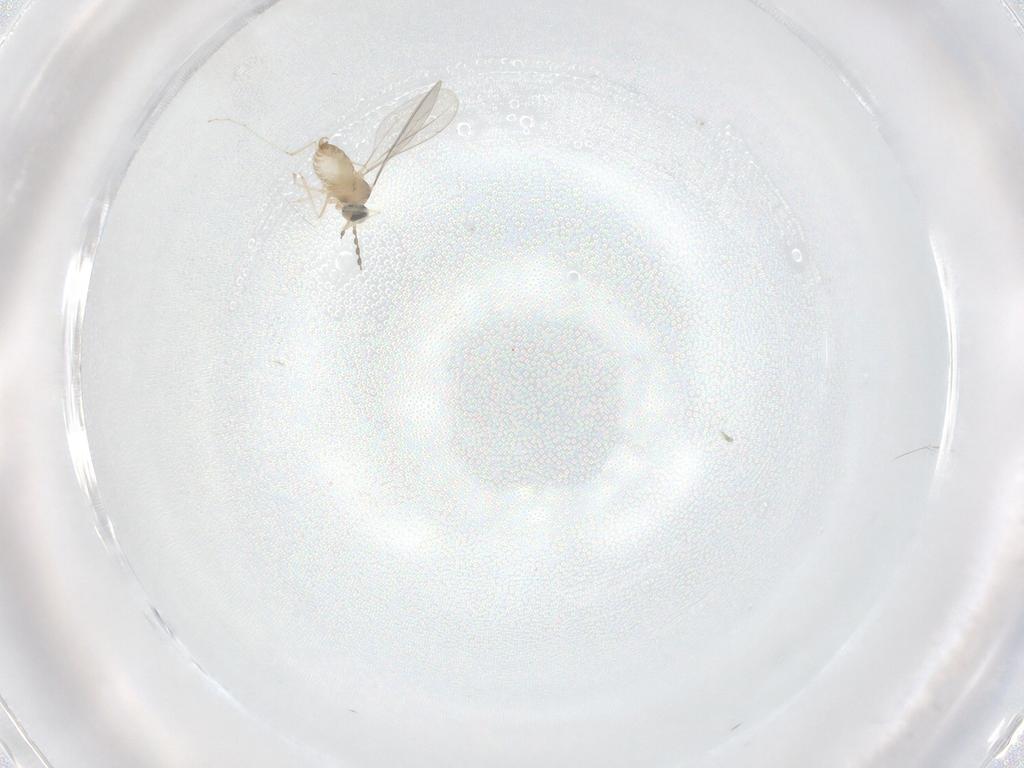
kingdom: Animalia
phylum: Arthropoda
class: Insecta
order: Diptera
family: Cecidomyiidae
